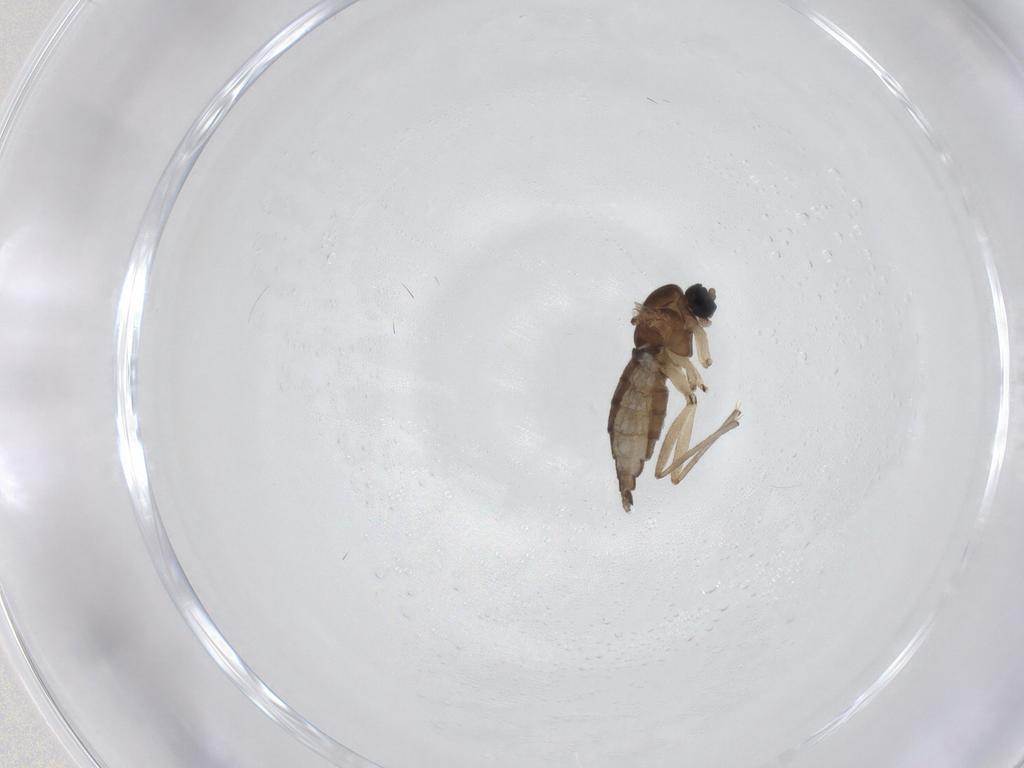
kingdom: Animalia
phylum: Arthropoda
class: Insecta
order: Diptera
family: Sciaridae
